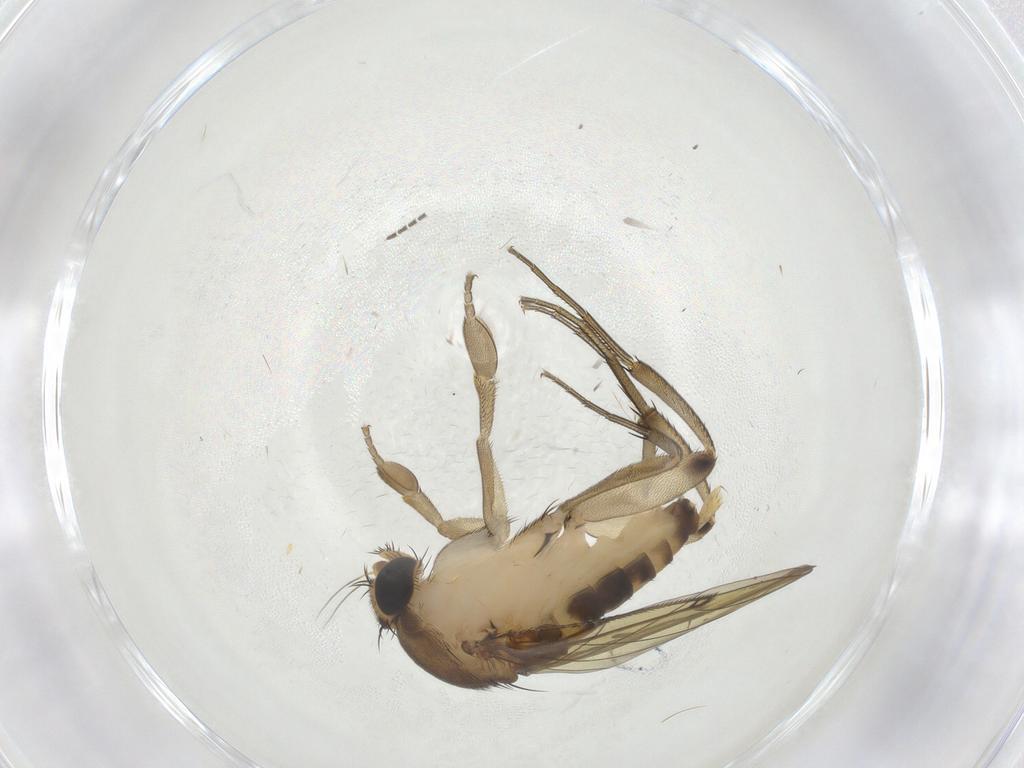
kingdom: Animalia
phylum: Arthropoda
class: Insecta
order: Diptera
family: Phoridae
